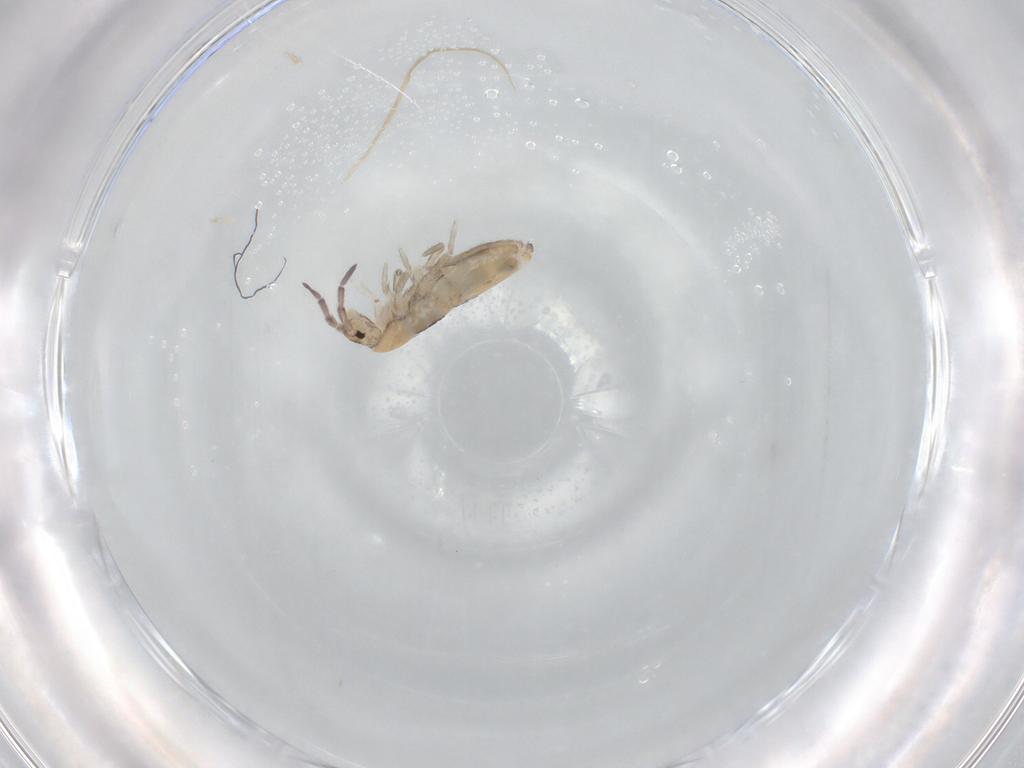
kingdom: Animalia
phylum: Arthropoda
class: Collembola
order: Entomobryomorpha
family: Entomobryidae
